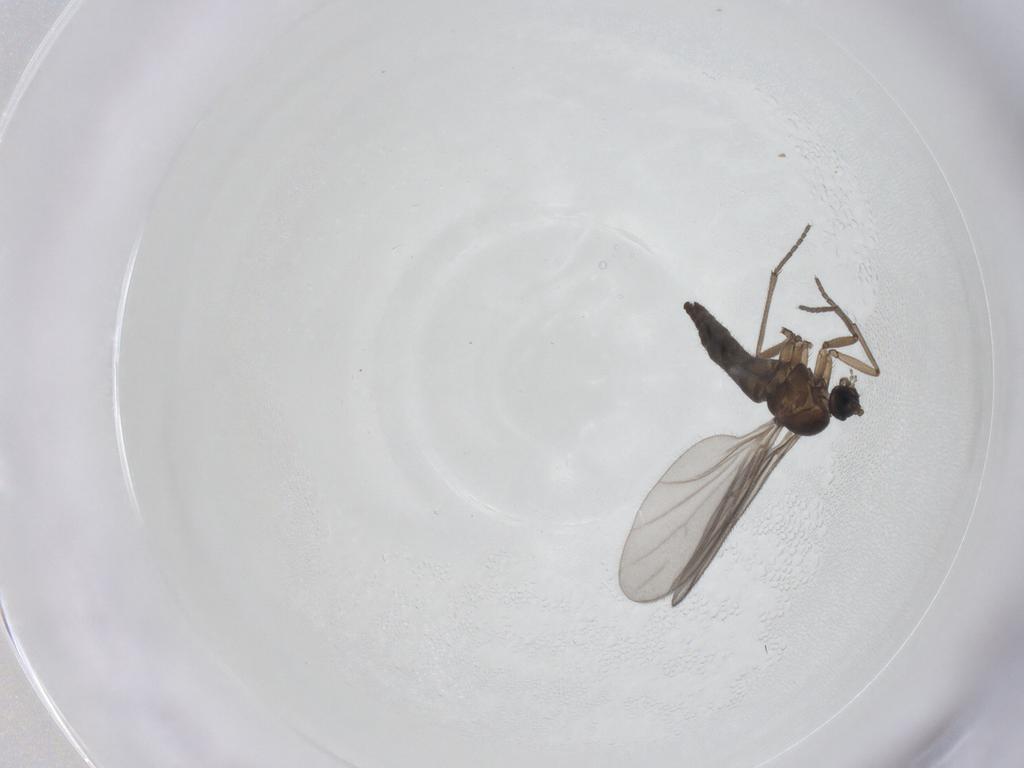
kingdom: Animalia
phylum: Arthropoda
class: Insecta
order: Diptera
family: Sciaridae
